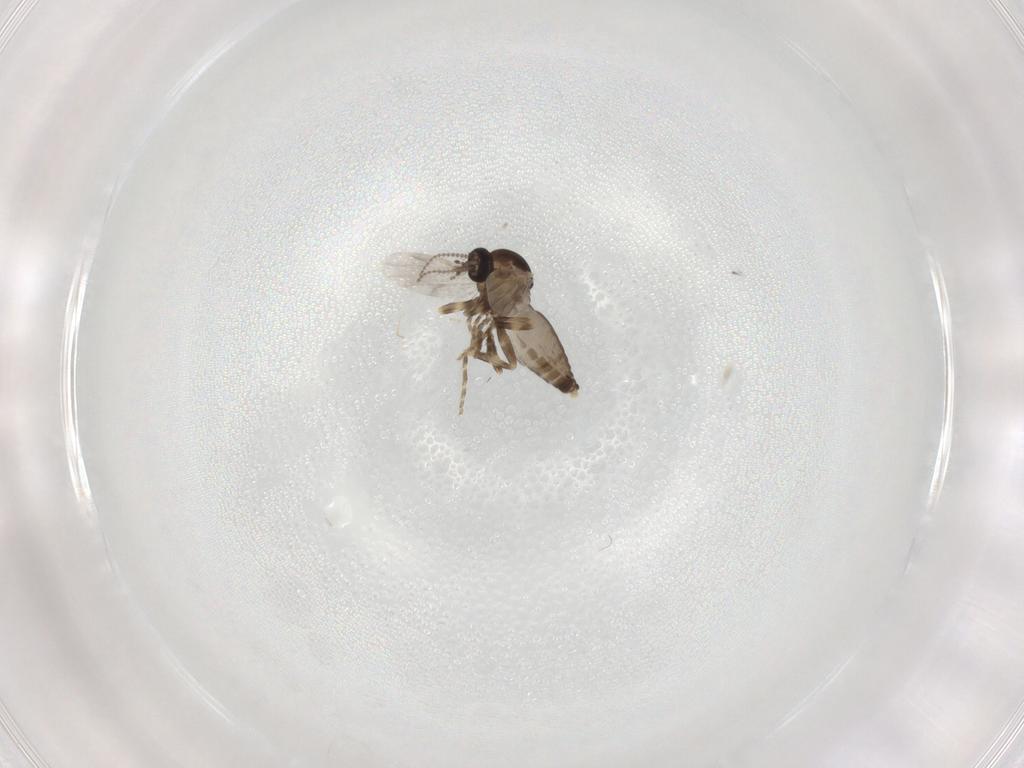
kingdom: Animalia
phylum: Arthropoda
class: Insecta
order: Diptera
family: Ceratopogonidae
